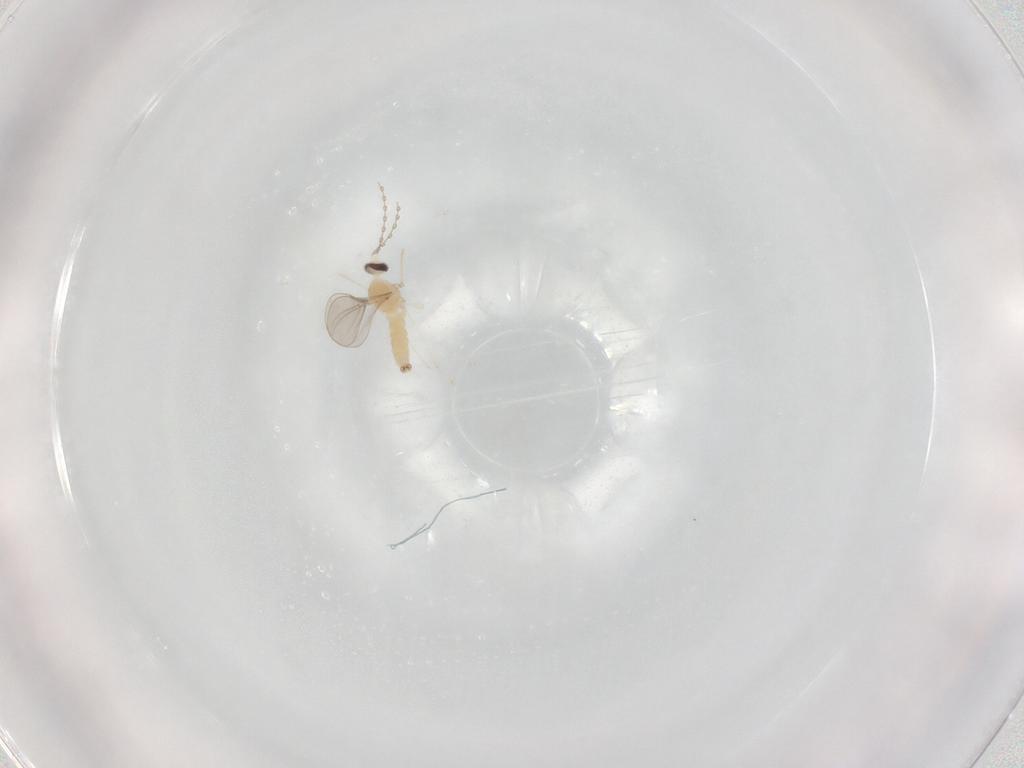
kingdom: Animalia
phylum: Arthropoda
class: Insecta
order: Diptera
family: Cecidomyiidae
